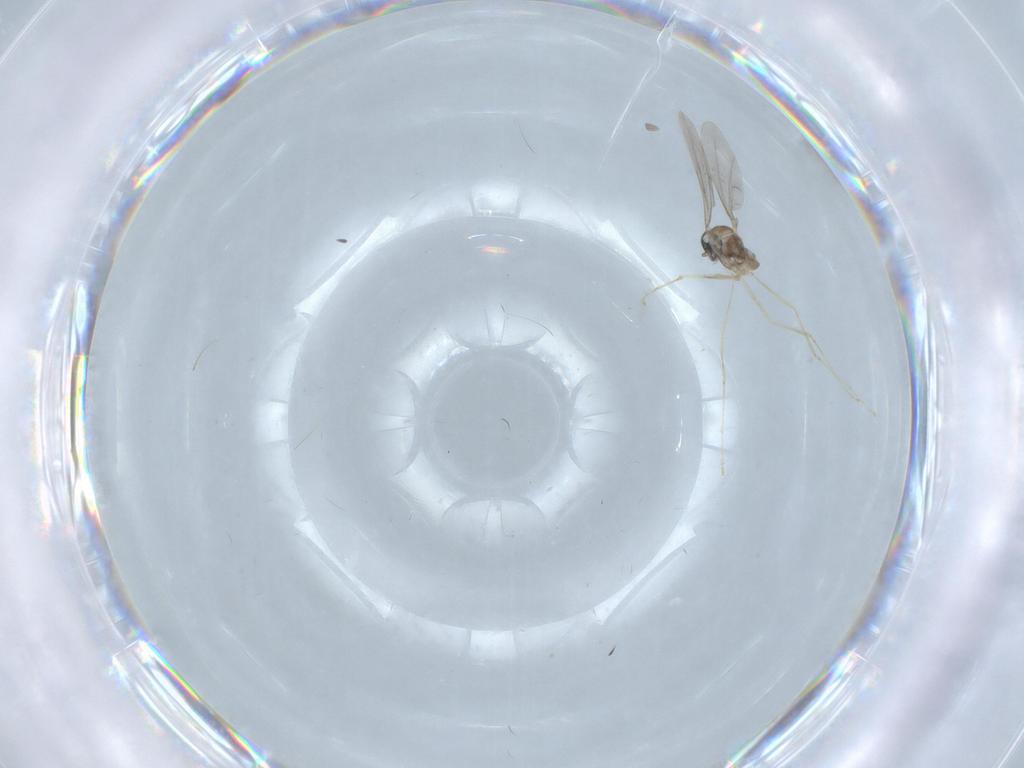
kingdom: Animalia
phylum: Arthropoda
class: Insecta
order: Diptera
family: Cecidomyiidae
